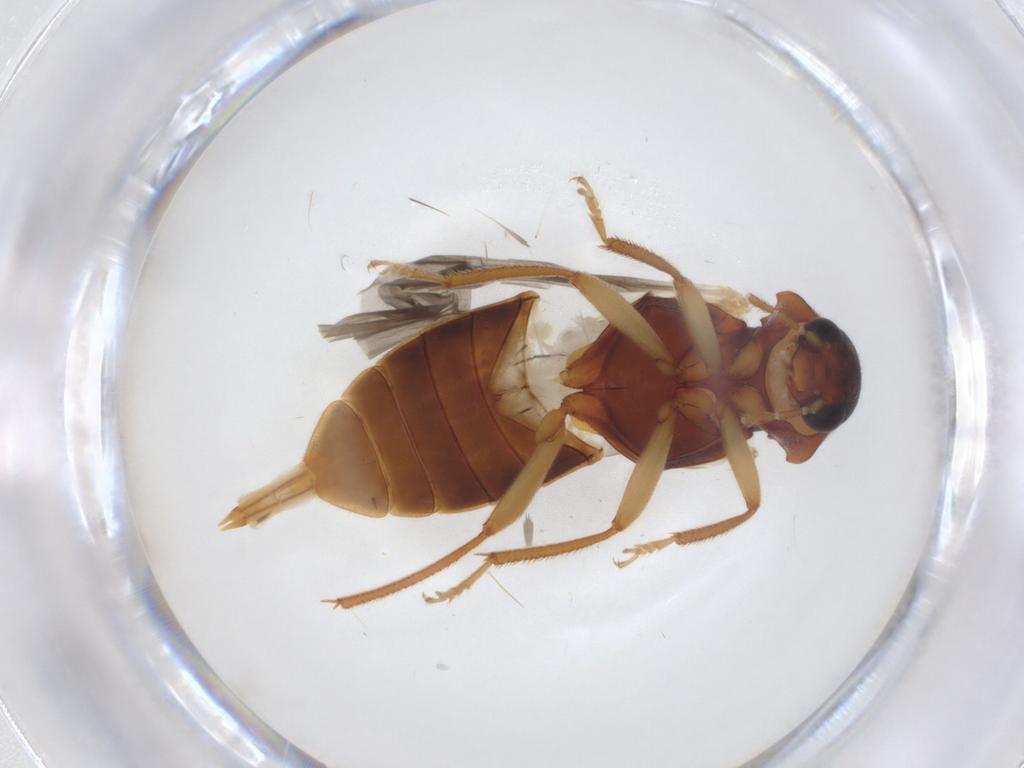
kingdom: Animalia
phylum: Arthropoda
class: Insecta
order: Coleoptera
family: Ptilodactylidae
